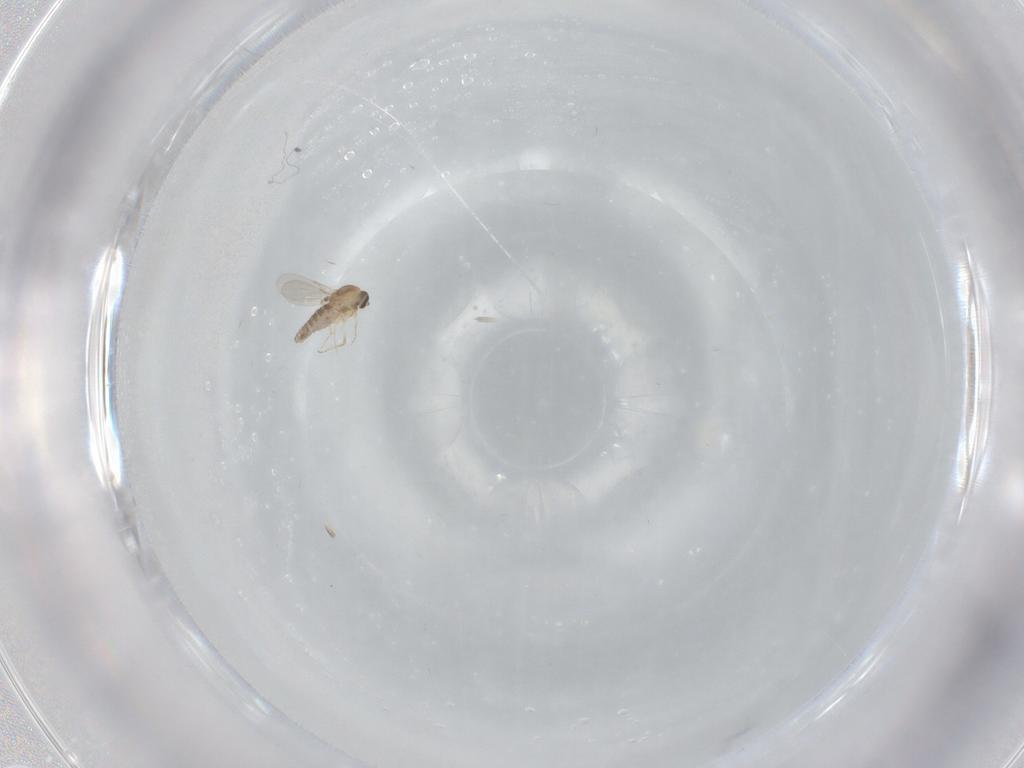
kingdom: Animalia
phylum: Arthropoda
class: Insecta
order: Diptera
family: Ceratopogonidae
